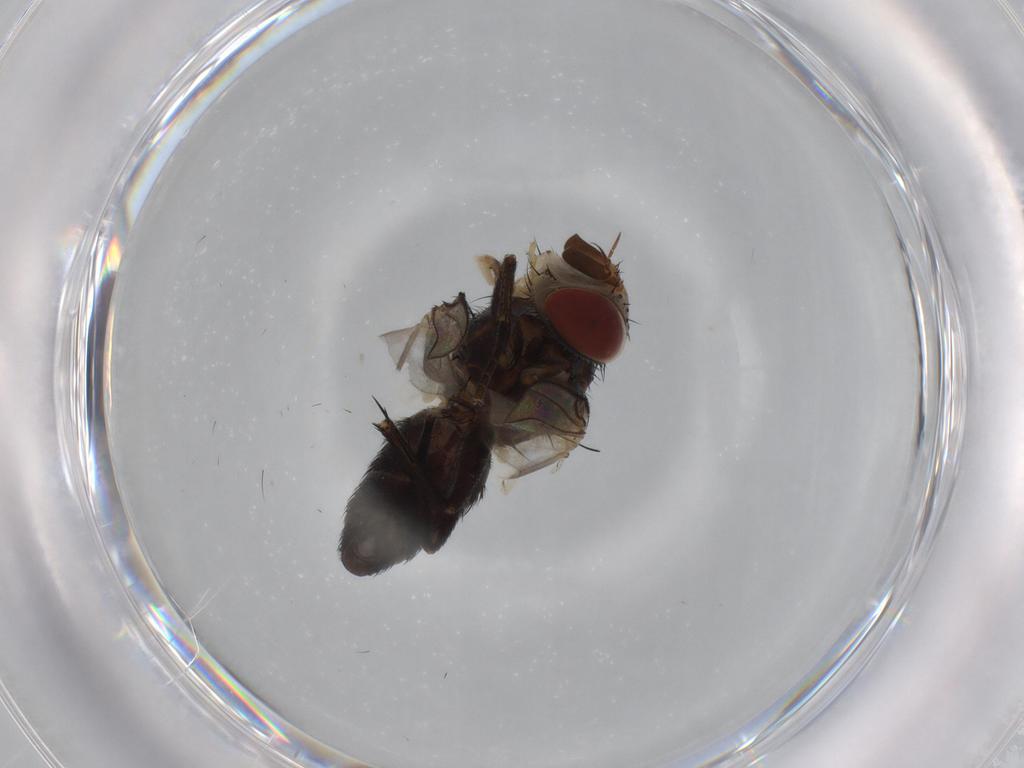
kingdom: Animalia
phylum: Arthropoda
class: Insecta
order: Diptera
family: Tachinidae
